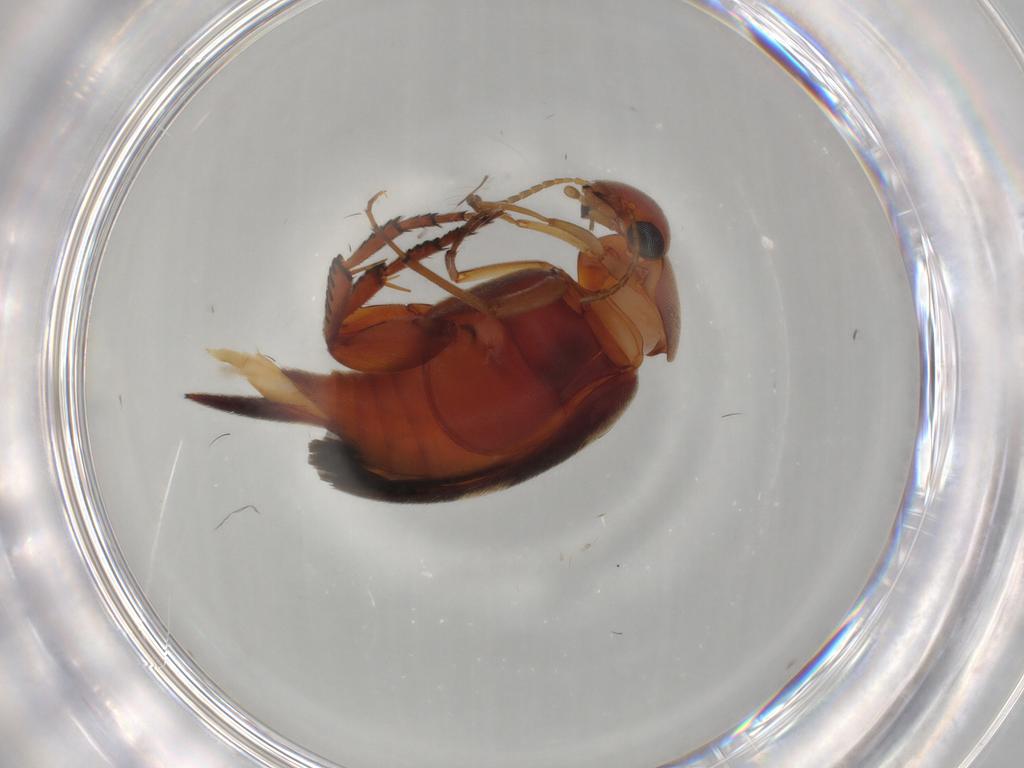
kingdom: Animalia
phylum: Arthropoda
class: Insecta
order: Coleoptera
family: Mordellidae
